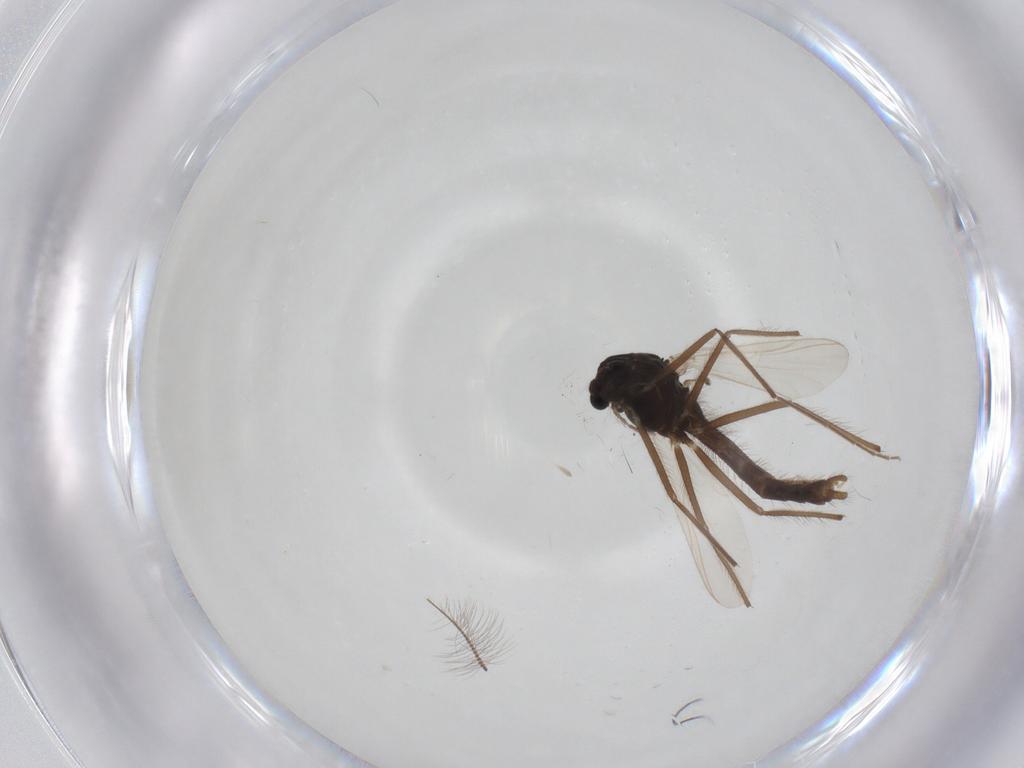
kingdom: Animalia
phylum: Arthropoda
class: Insecta
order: Diptera
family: Chironomidae
